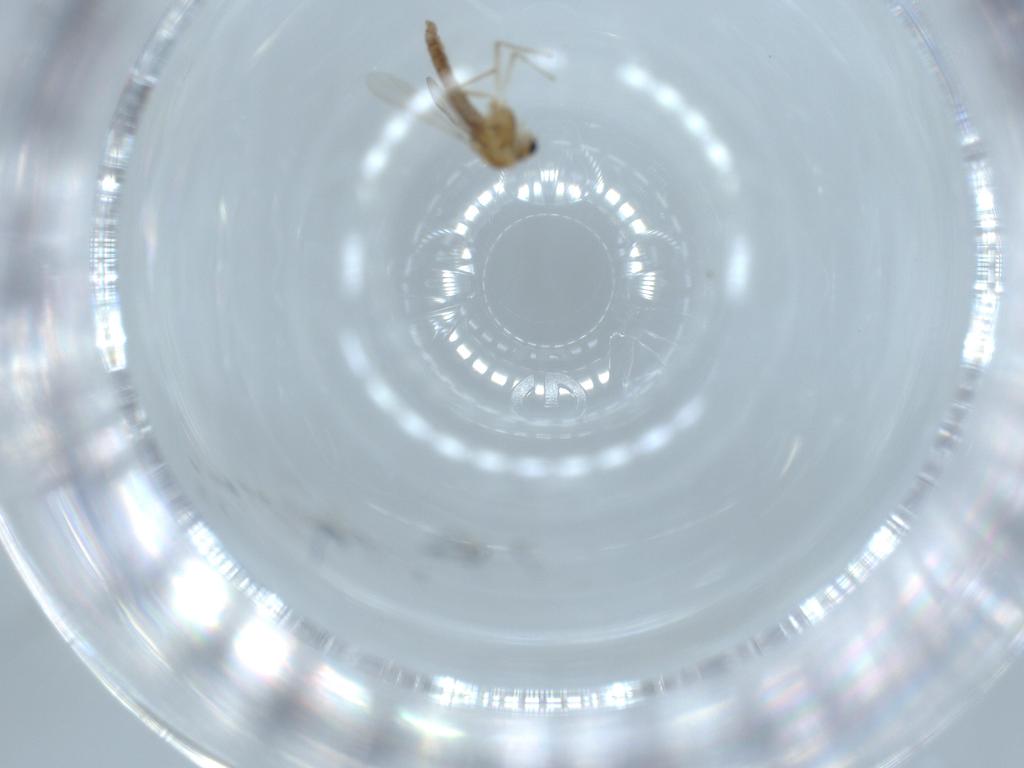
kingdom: Animalia
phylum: Arthropoda
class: Insecta
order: Diptera
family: Chironomidae
